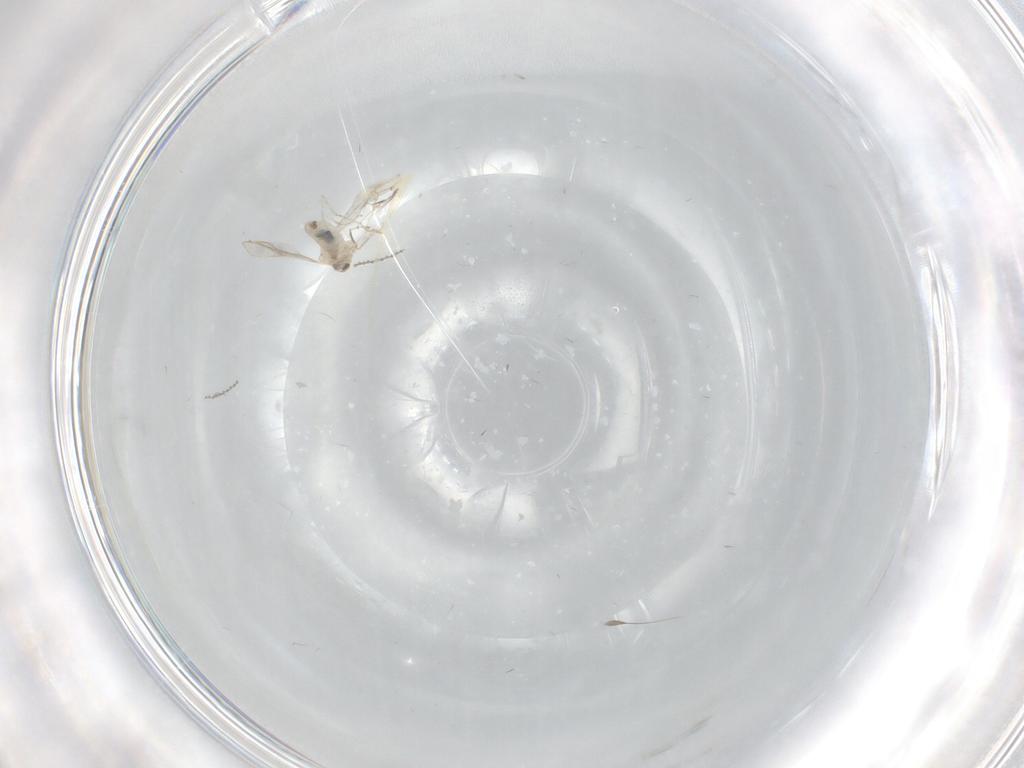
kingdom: Animalia
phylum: Arthropoda
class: Insecta
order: Diptera
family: Cecidomyiidae
